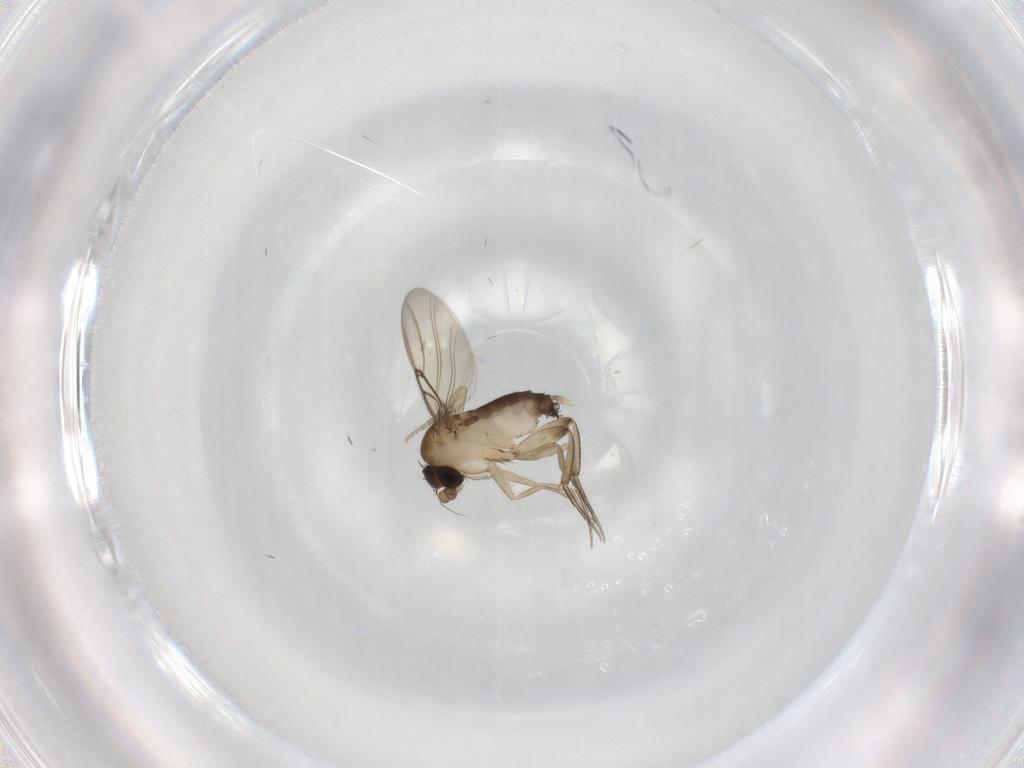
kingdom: Animalia
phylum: Arthropoda
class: Insecta
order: Diptera
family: Phoridae
